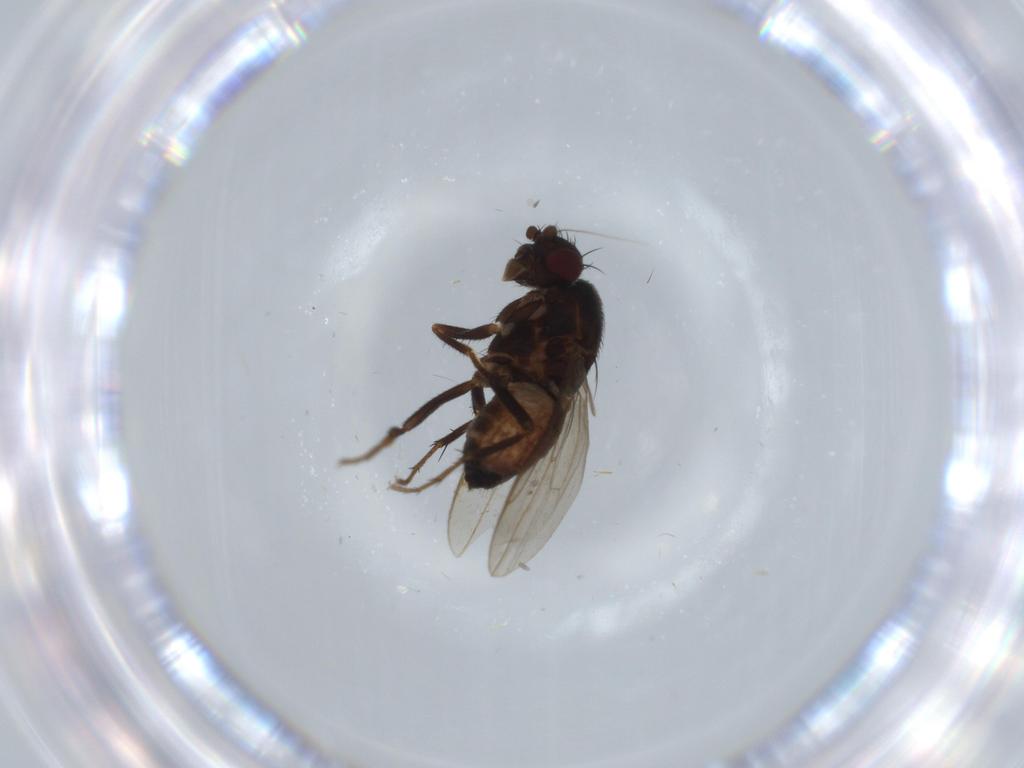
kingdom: Animalia
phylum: Arthropoda
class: Insecta
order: Diptera
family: Sphaeroceridae
